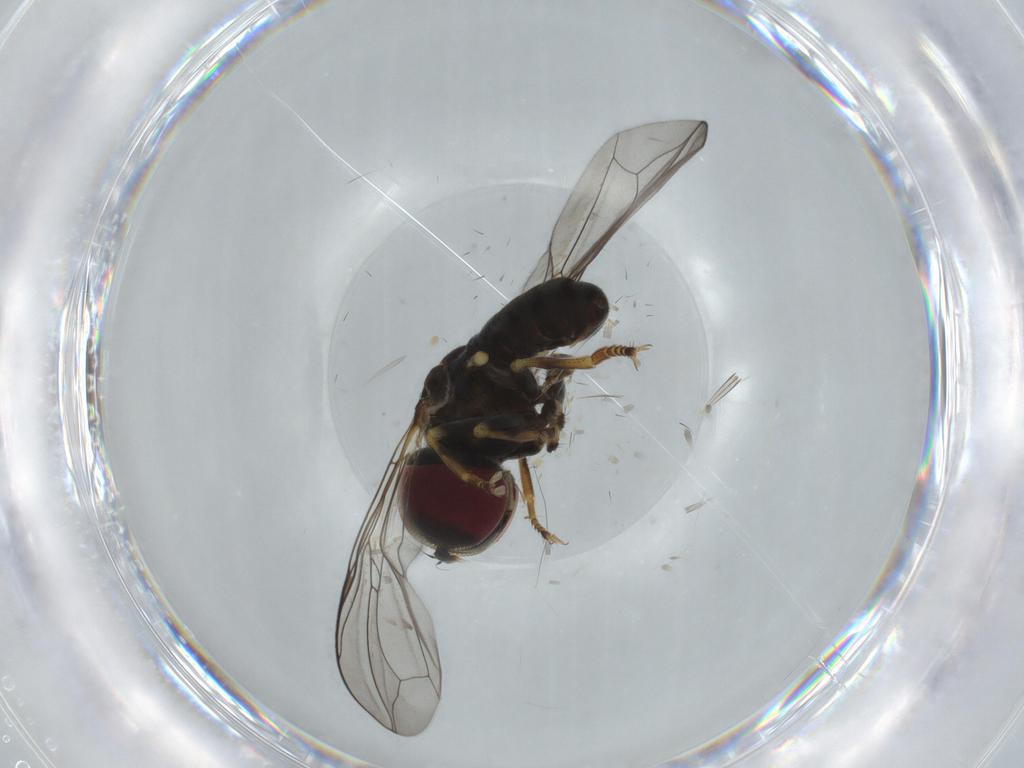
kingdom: Animalia
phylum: Arthropoda
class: Insecta
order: Diptera
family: Pipunculidae
